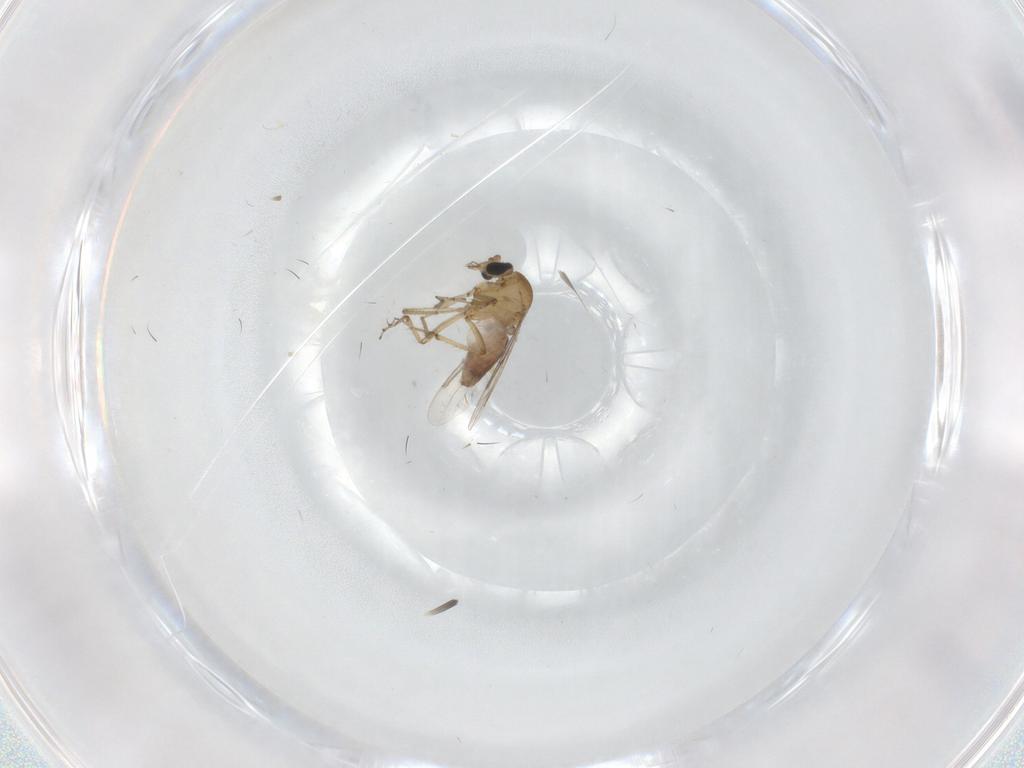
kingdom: Animalia
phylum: Arthropoda
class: Insecta
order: Diptera
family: Ceratopogonidae
